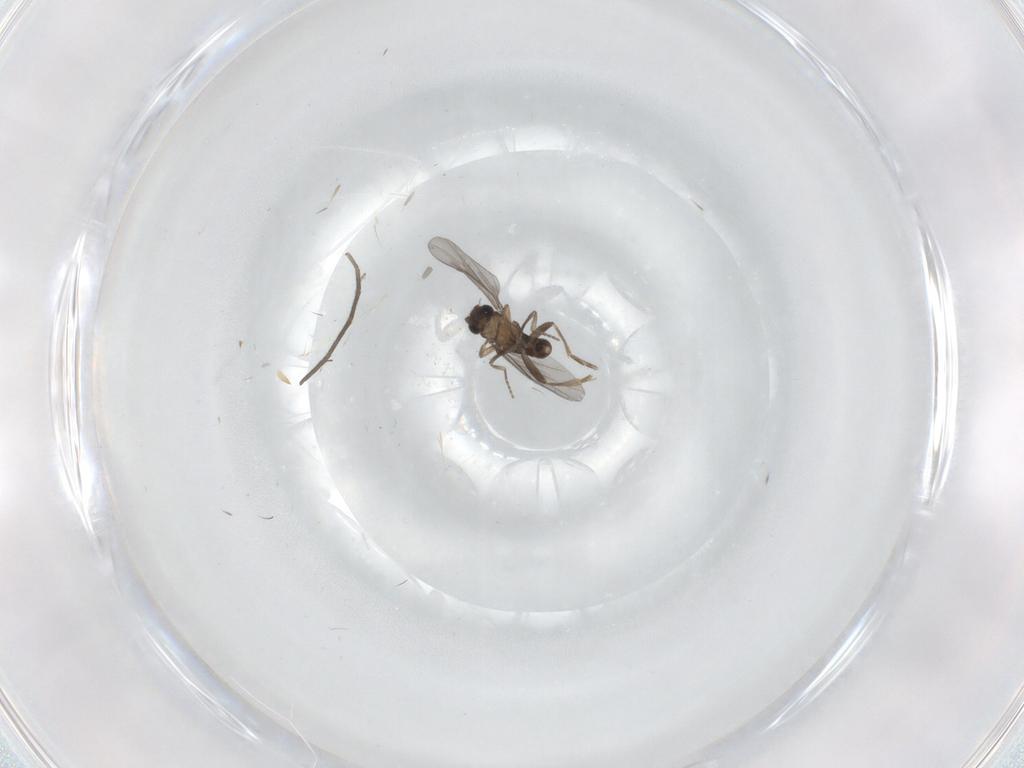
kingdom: Animalia
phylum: Arthropoda
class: Insecta
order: Diptera
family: Mycetophilidae
